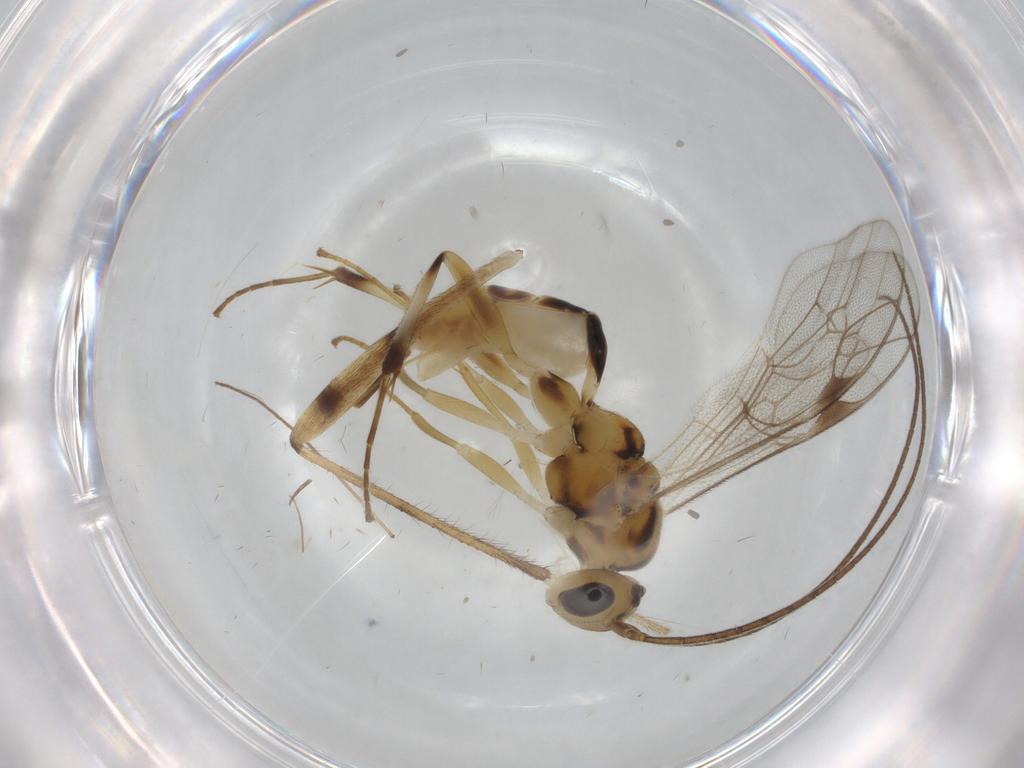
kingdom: Animalia
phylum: Arthropoda
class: Insecta
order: Hymenoptera
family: Ichneumonidae
